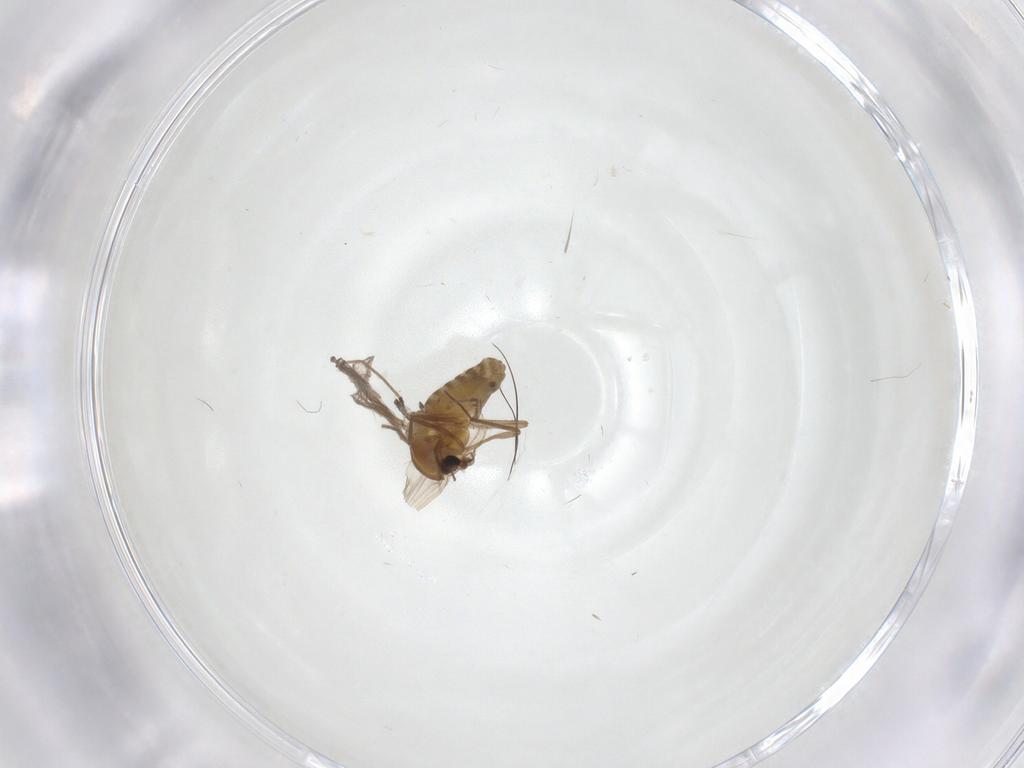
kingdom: Animalia
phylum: Arthropoda
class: Insecta
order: Diptera
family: Chironomidae
